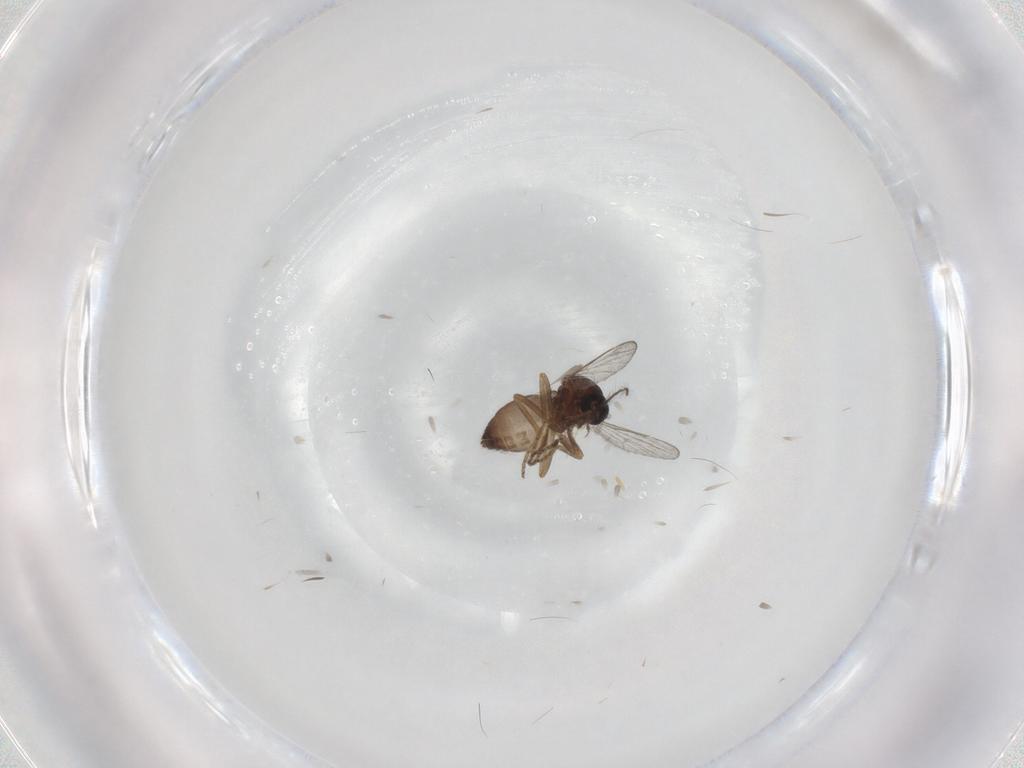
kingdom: Animalia
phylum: Arthropoda
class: Insecta
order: Diptera
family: Ceratopogonidae
